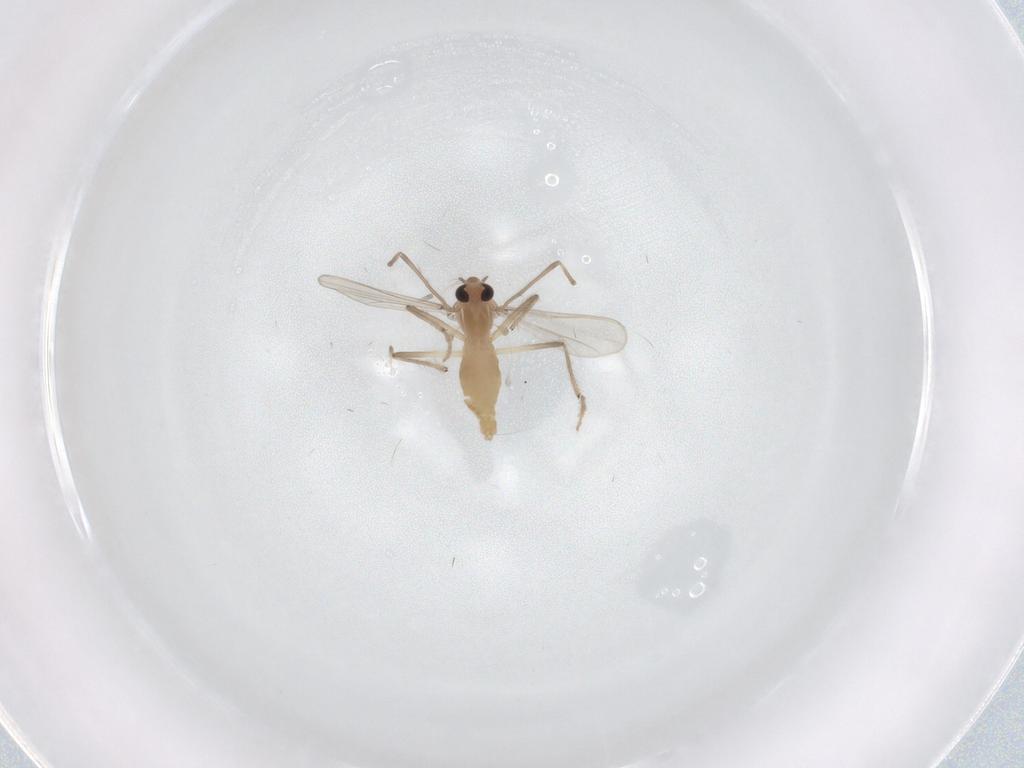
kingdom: Animalia
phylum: Arthropoda
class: Insecta
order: Diptera
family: Chironomidae
